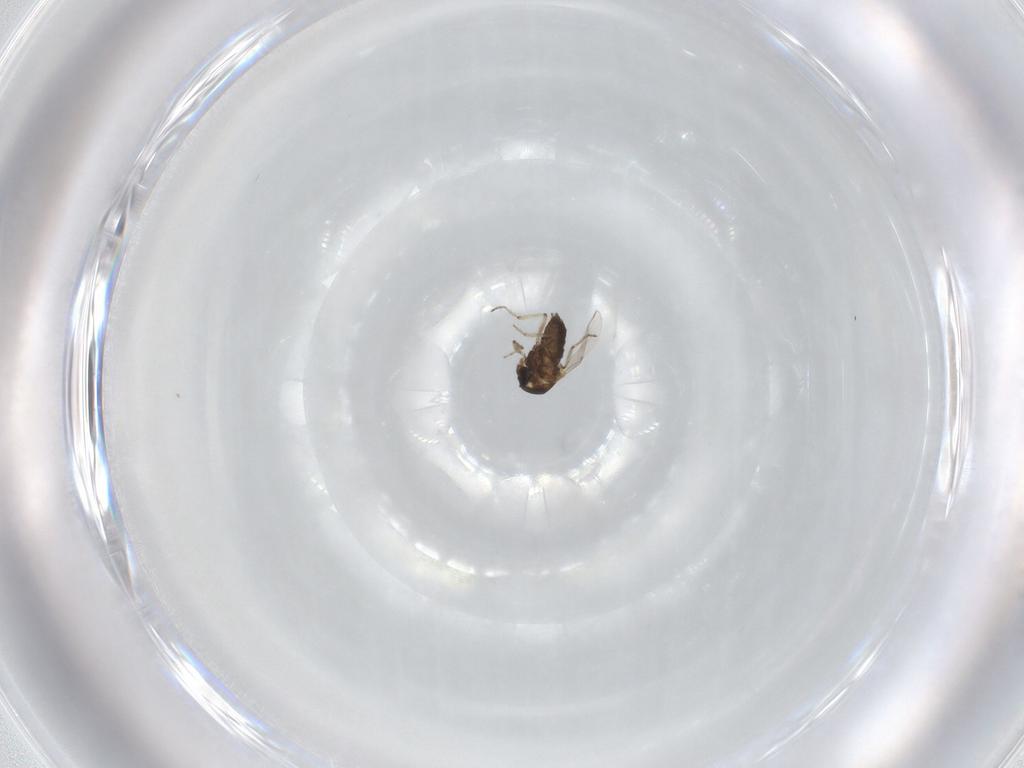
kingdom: Animalia
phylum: Arthropoda
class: Insecta
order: Diptera
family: Ceratopogonidae
